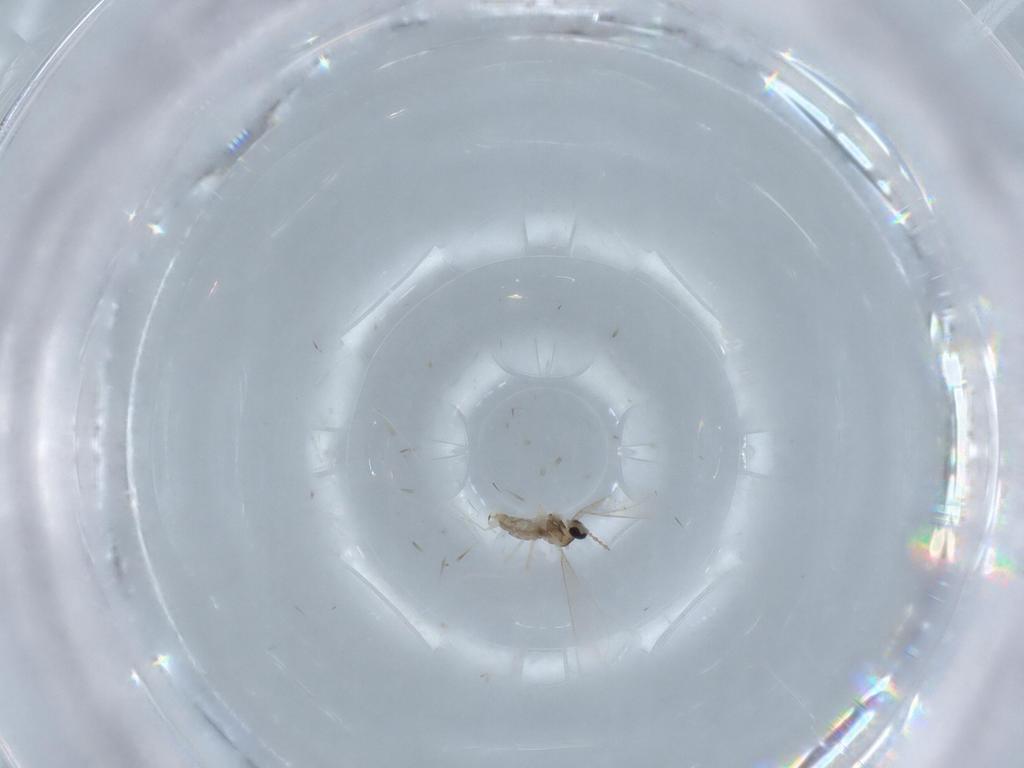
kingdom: Animalia
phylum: Arthropoda
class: Insecta
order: Diptera
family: Cecidomyiidae
